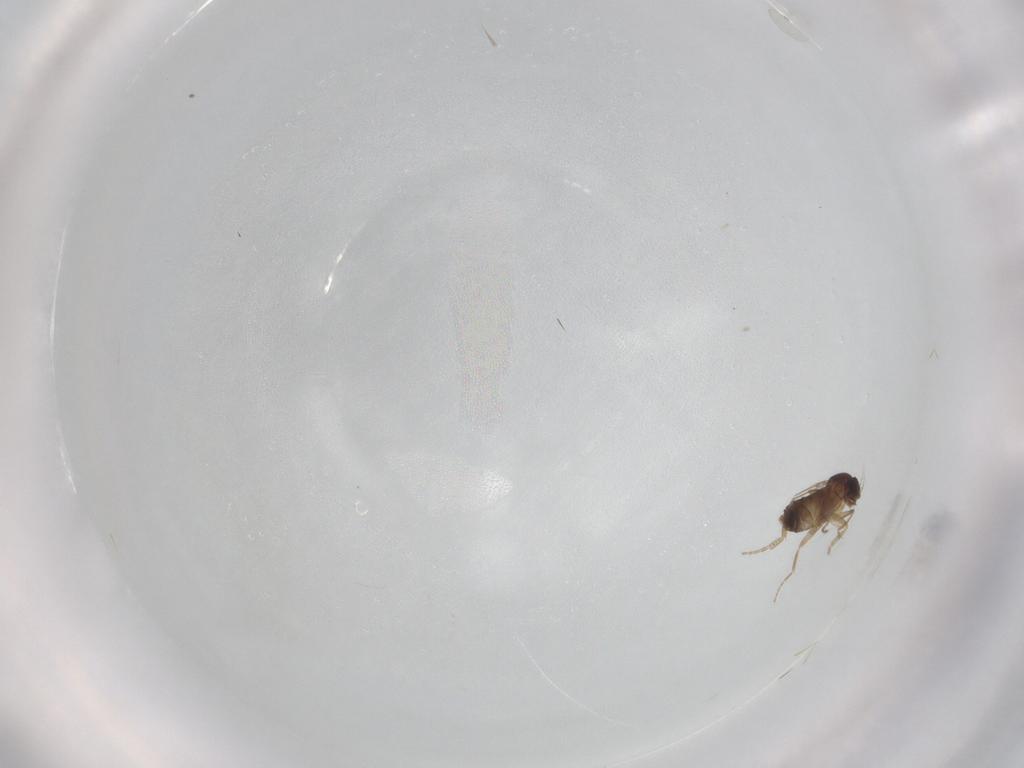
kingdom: Animalia
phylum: Arthropoda
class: Insecta
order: Diptera
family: Phoridae
